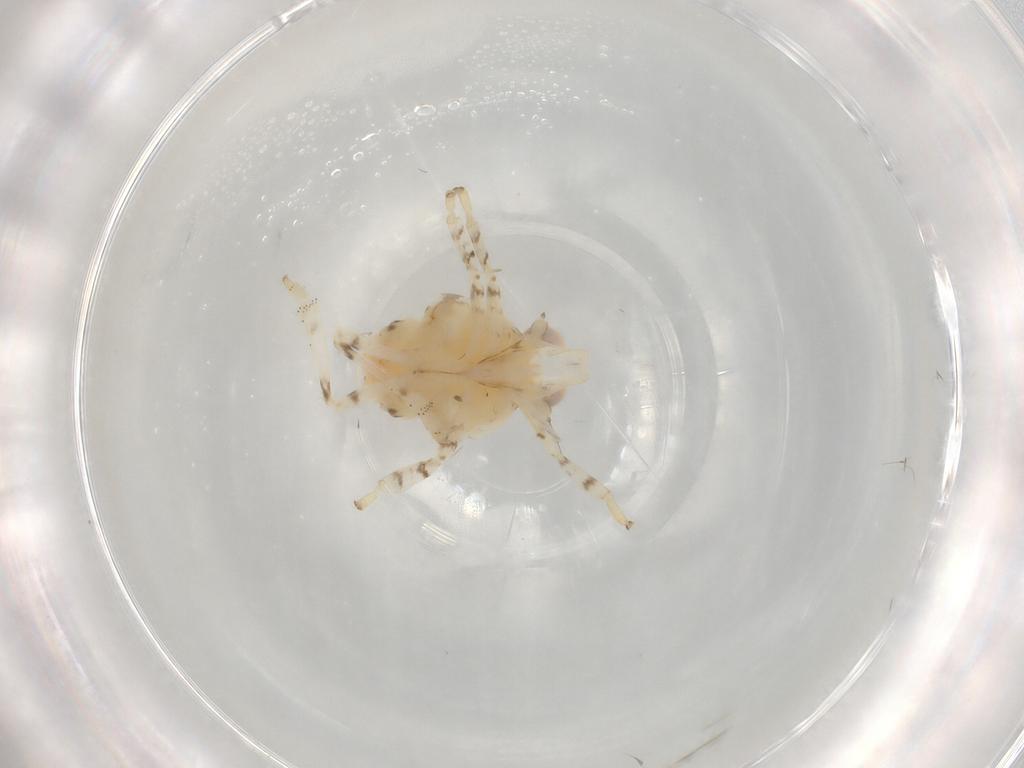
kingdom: Animalia
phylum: Arthropoda
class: Insecta
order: Hemiptera
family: Lophopidae
